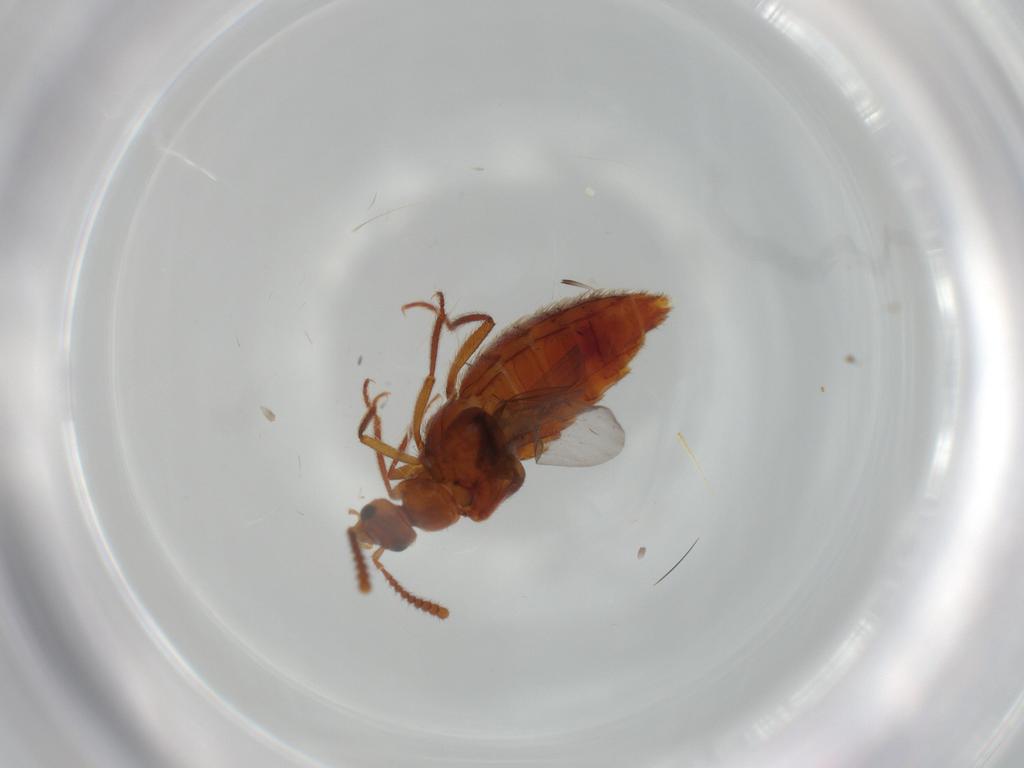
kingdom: Animalia
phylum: Arthropoda
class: Insecta
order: Coleoptera
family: Staphylinidae
